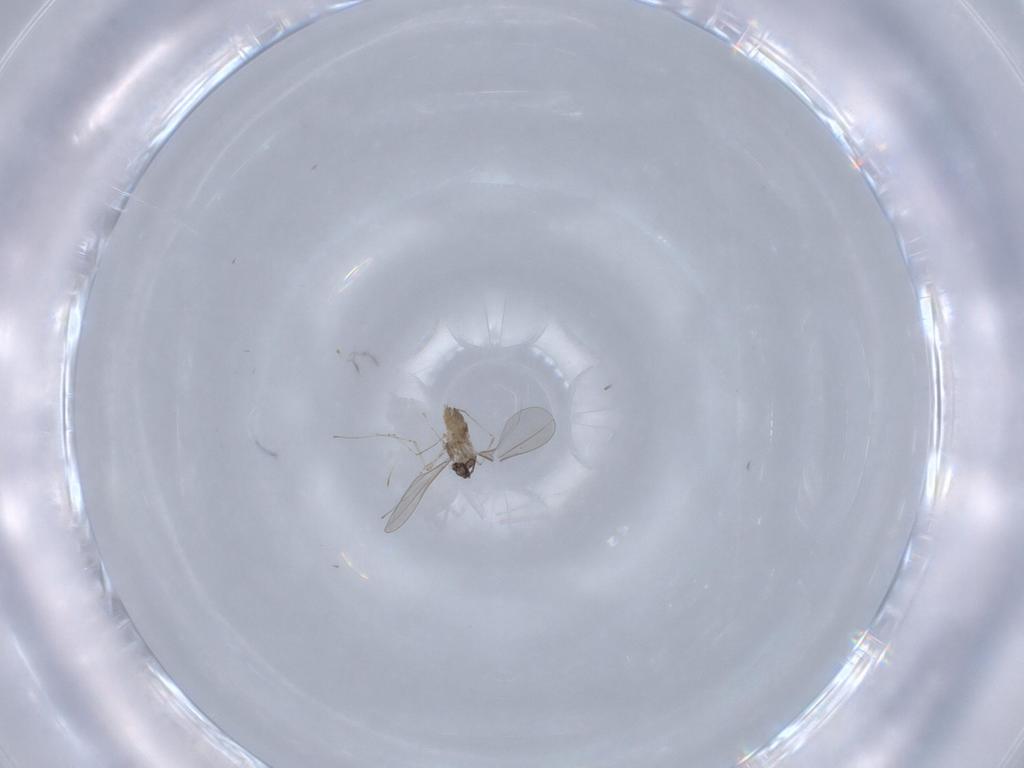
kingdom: Animalia
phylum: Arthropoda
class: Insecta
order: Diptera
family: Cecidomyiidae
